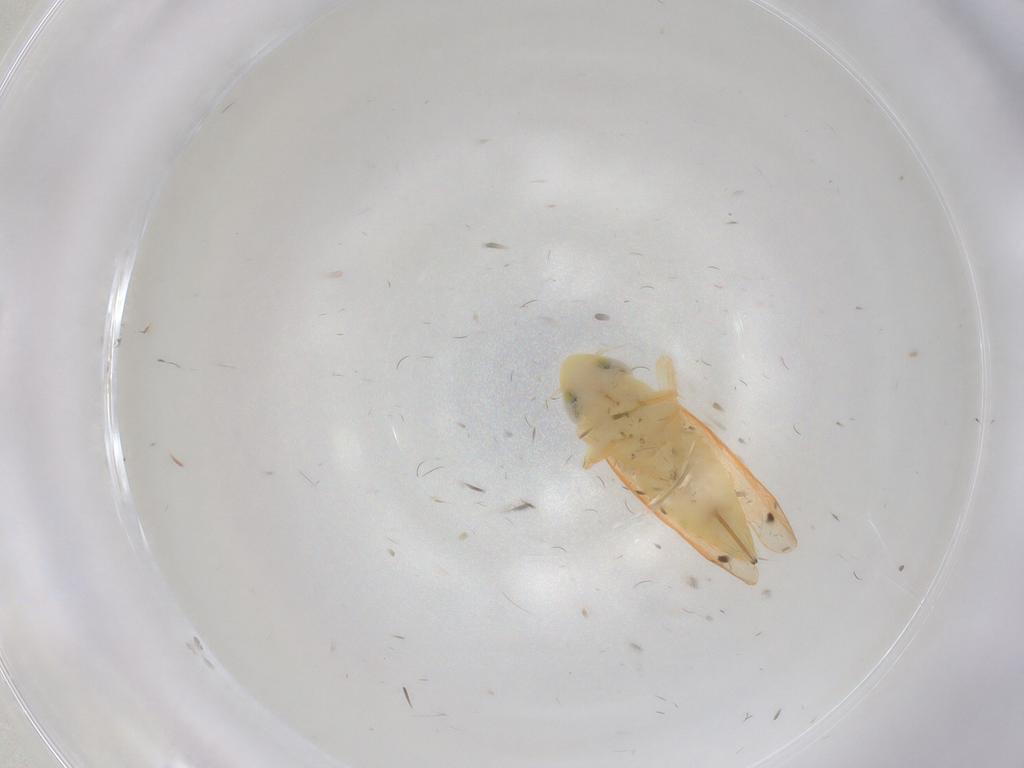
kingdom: Animalia
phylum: Arthropoda
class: Insecta
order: Hemiptera
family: Cicadellidae
